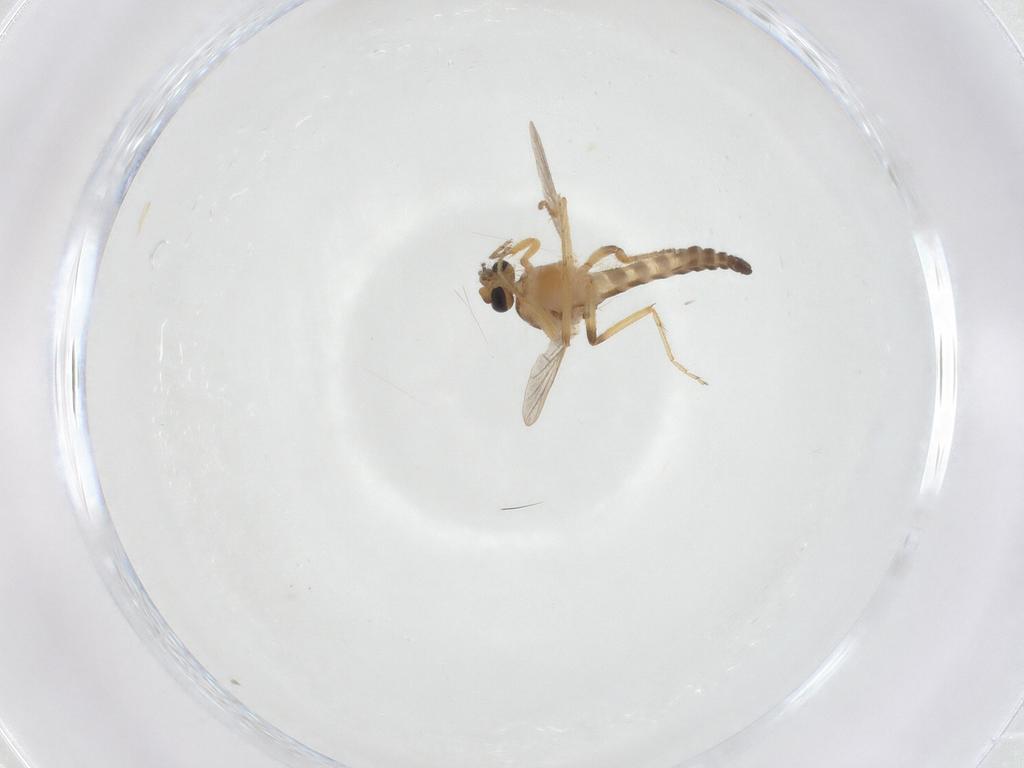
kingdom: Animalia
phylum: Arthropoda
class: Insecta
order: Diptera
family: Ceratopogonidae
